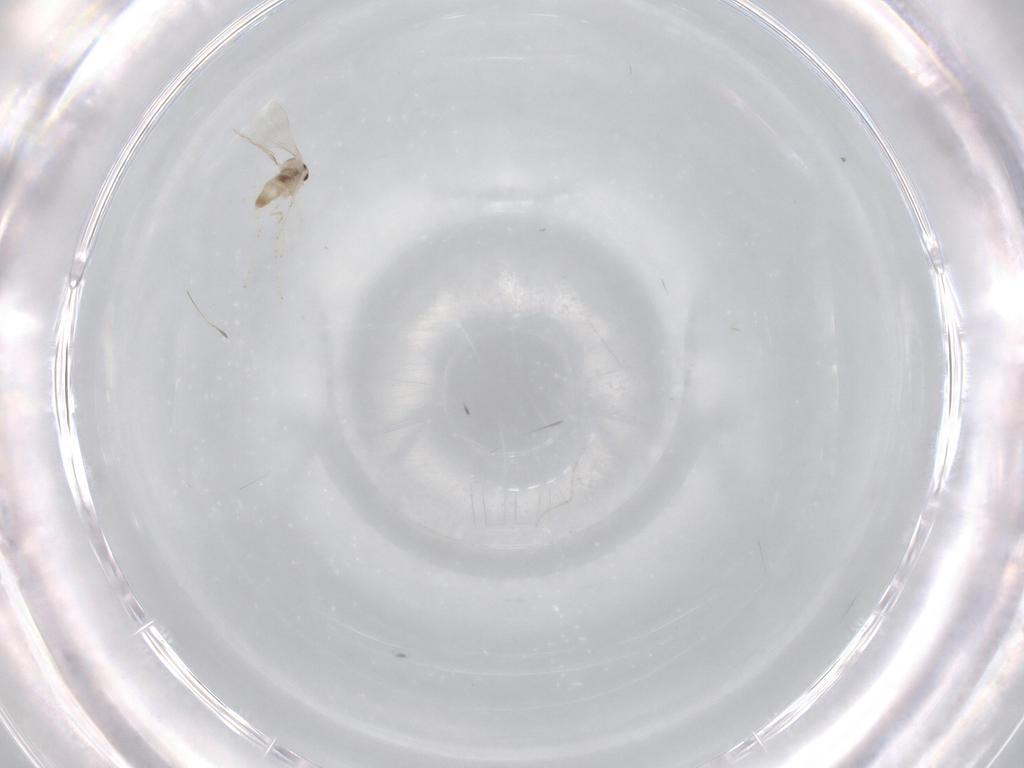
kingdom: Animalia
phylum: Arthropoda
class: Insecta
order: Diptera
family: Cecidomyiidae
